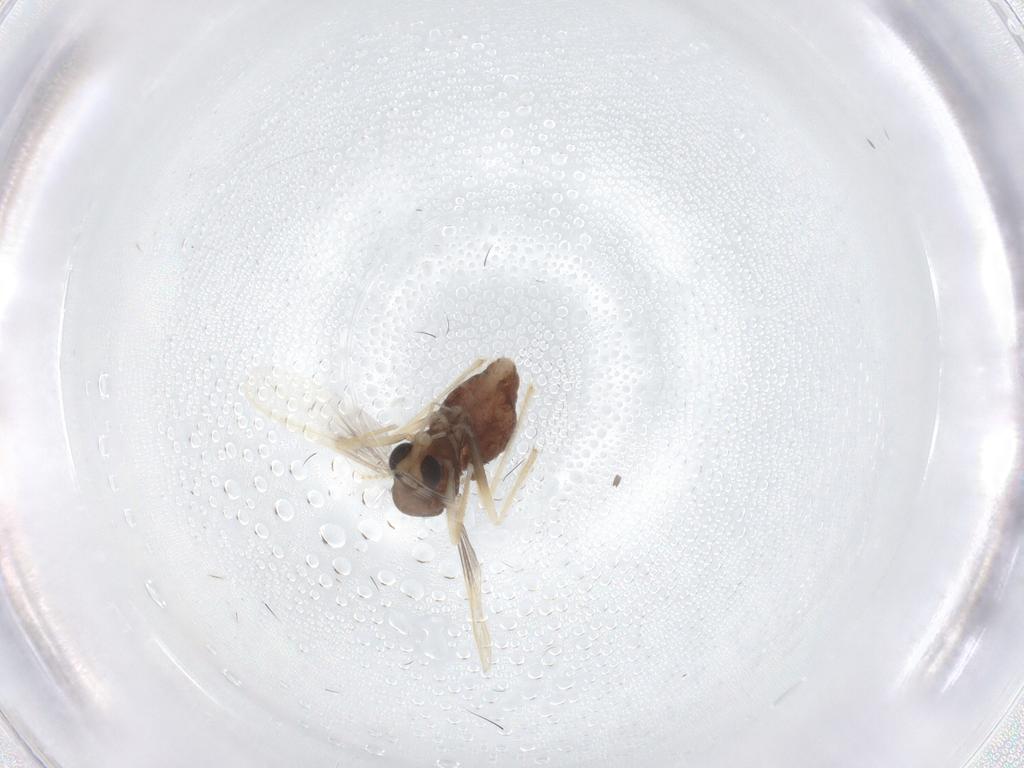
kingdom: Animalia
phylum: Arthropoda
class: Insecta
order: Diptera
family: Chironomidae
